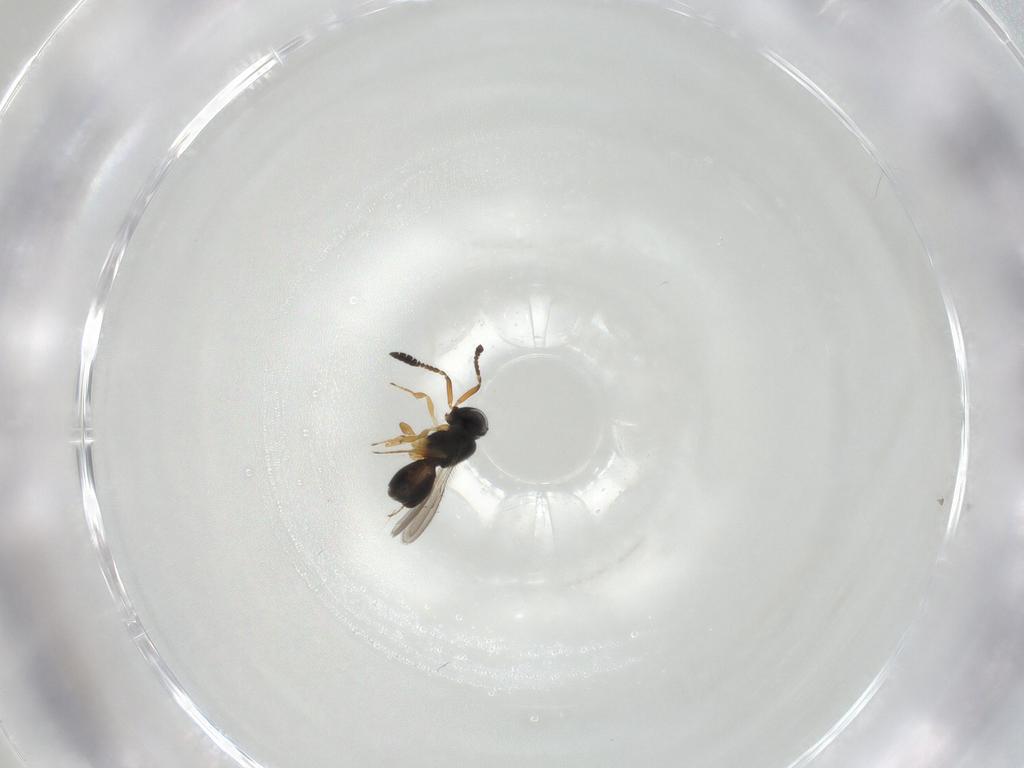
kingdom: Animalia
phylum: Arthropoda
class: Insecta
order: Hymenoptera
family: Scelionidae
